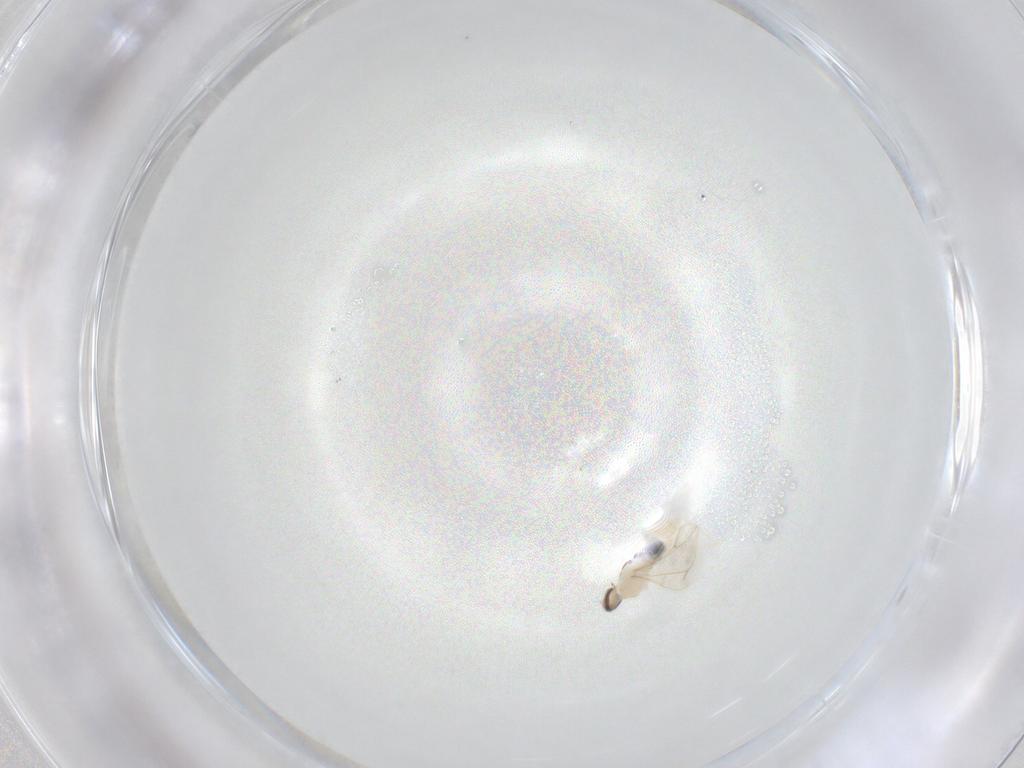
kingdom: Animalia
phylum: Arthropoda
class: Insecta
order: Diptera
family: Cecidomyiidae
